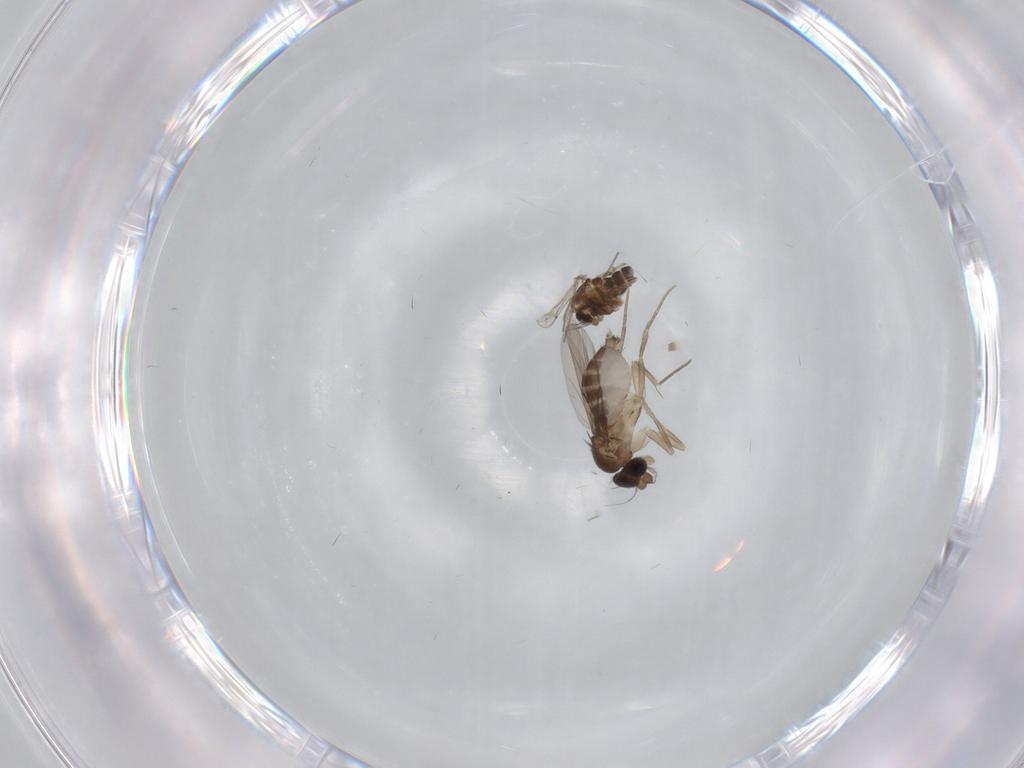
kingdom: Animalia
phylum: Arthropoda
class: Insecta
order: Diptera
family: Chironomidae
